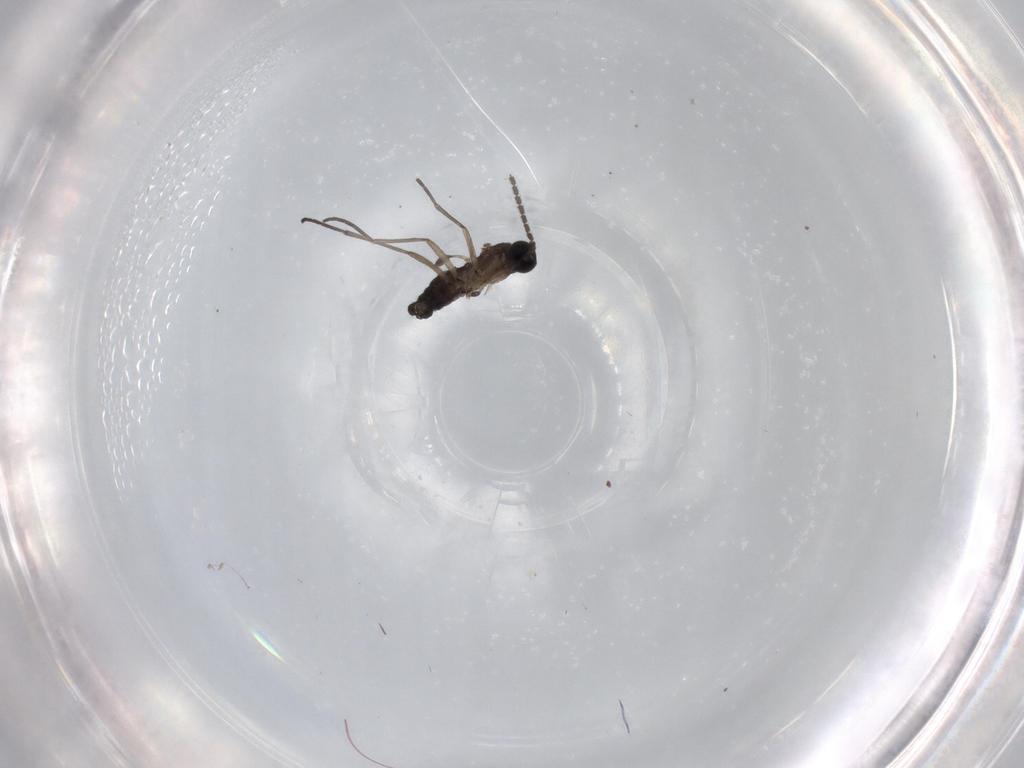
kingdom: Animalia
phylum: Arthropoda
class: Insecta
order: Diptera
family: Sciaridae
